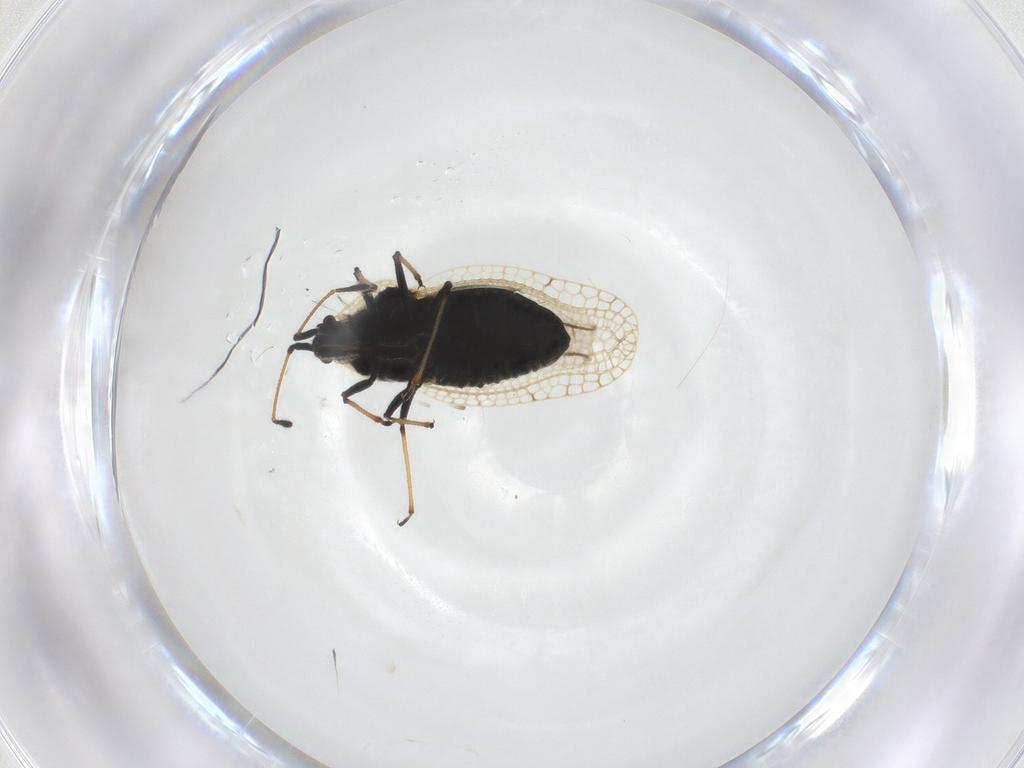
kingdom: Animalia
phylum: Arthropoda
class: Insecta
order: Hemiptera
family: Tingidae
